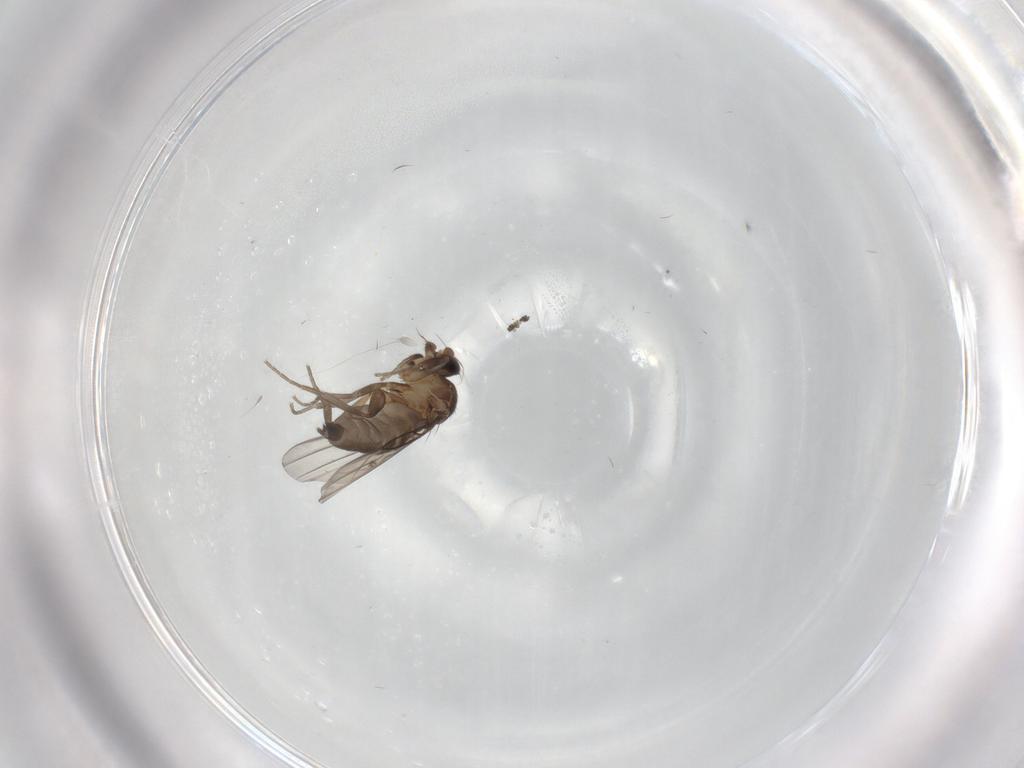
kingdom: Animalia
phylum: Arthropoda
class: Insecta
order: Diptera
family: Phoridae
